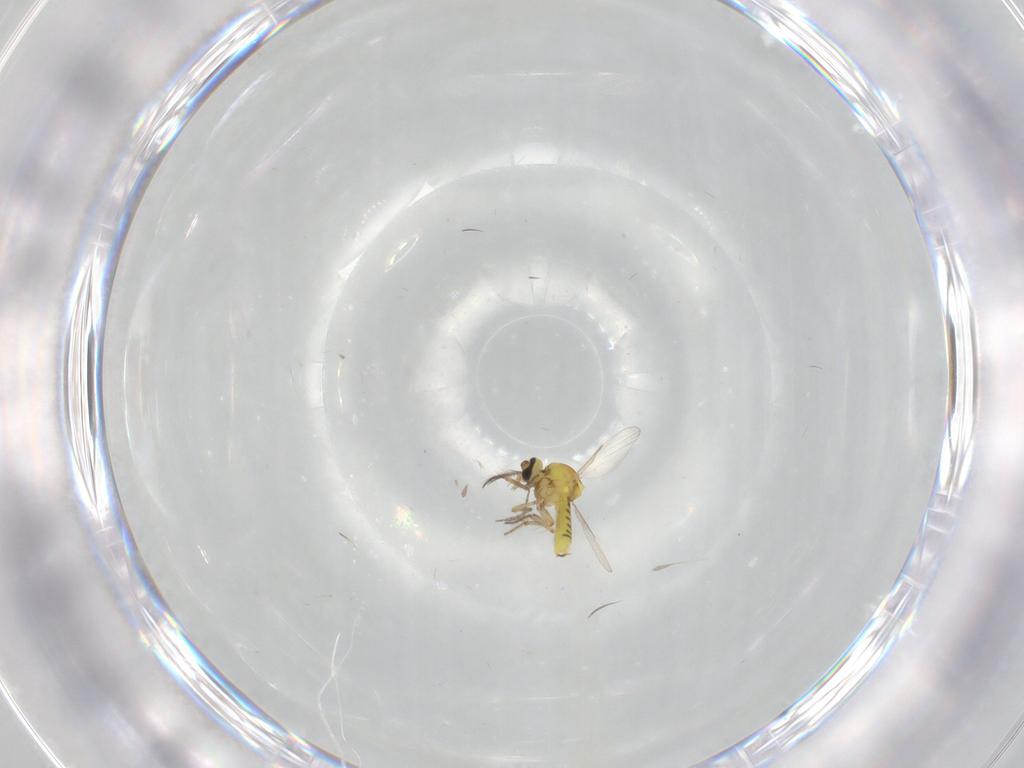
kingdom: Animalia
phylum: Arthropoda
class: Insecta
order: Diptera
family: Ceratopogonidae
